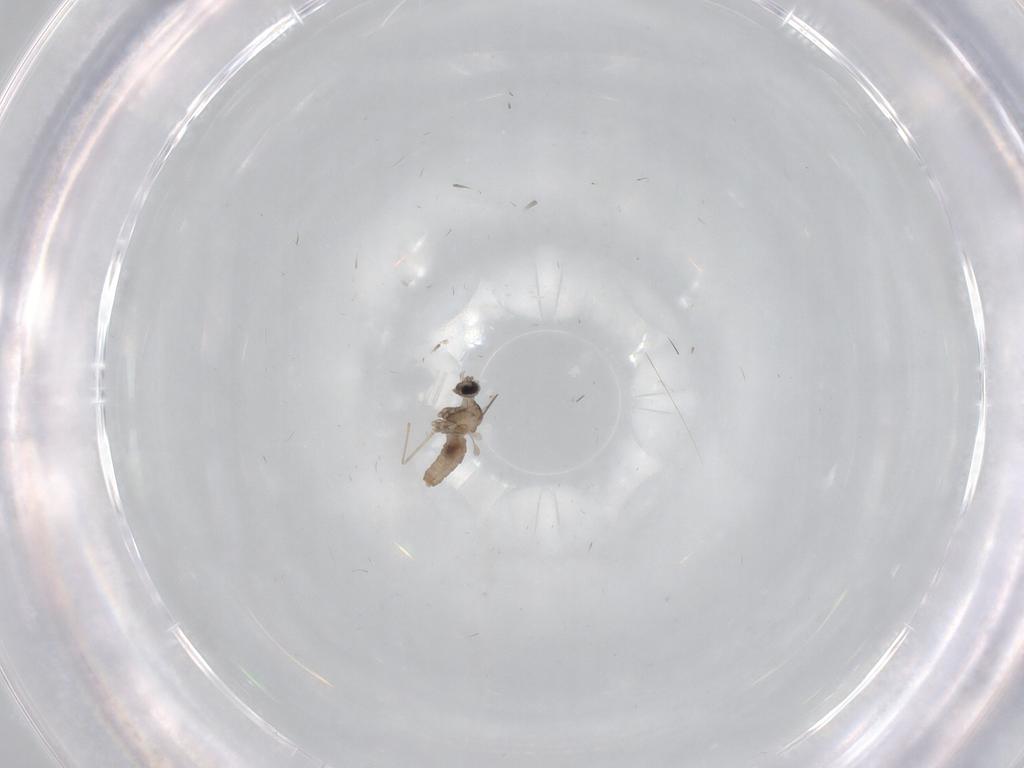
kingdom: Animalia
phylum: Arthropoda
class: Insecta
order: Diptera
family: Culicidae
